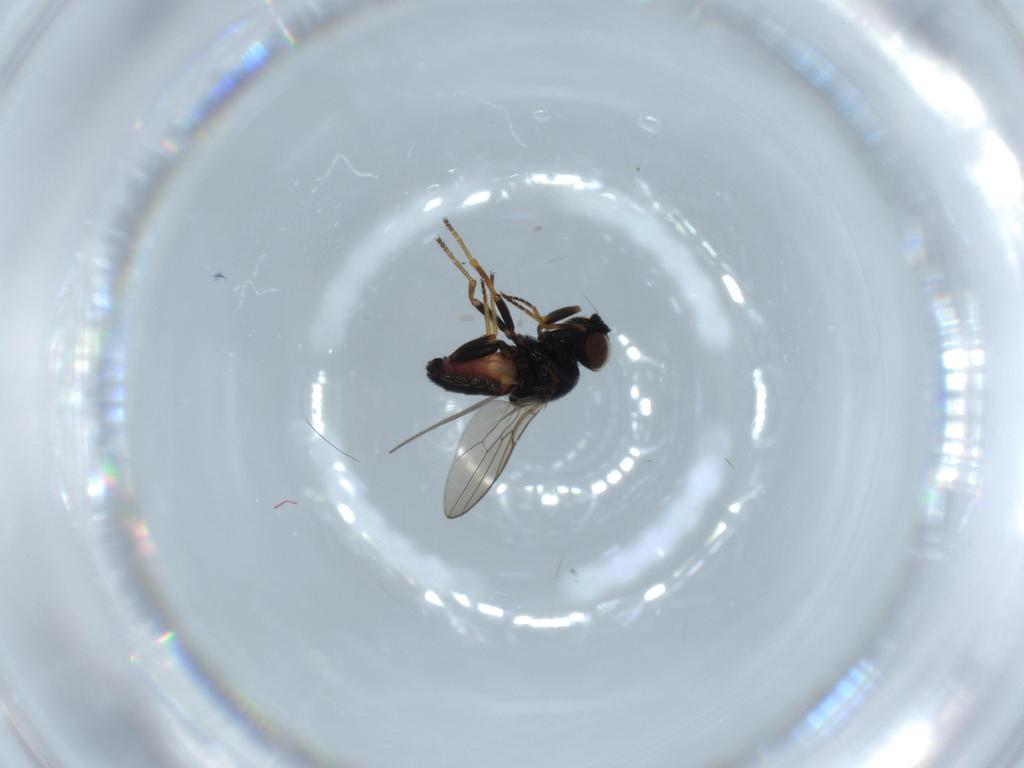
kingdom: Animalia
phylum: Arthropoda
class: Insecta
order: Diptera
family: Chloropidae
